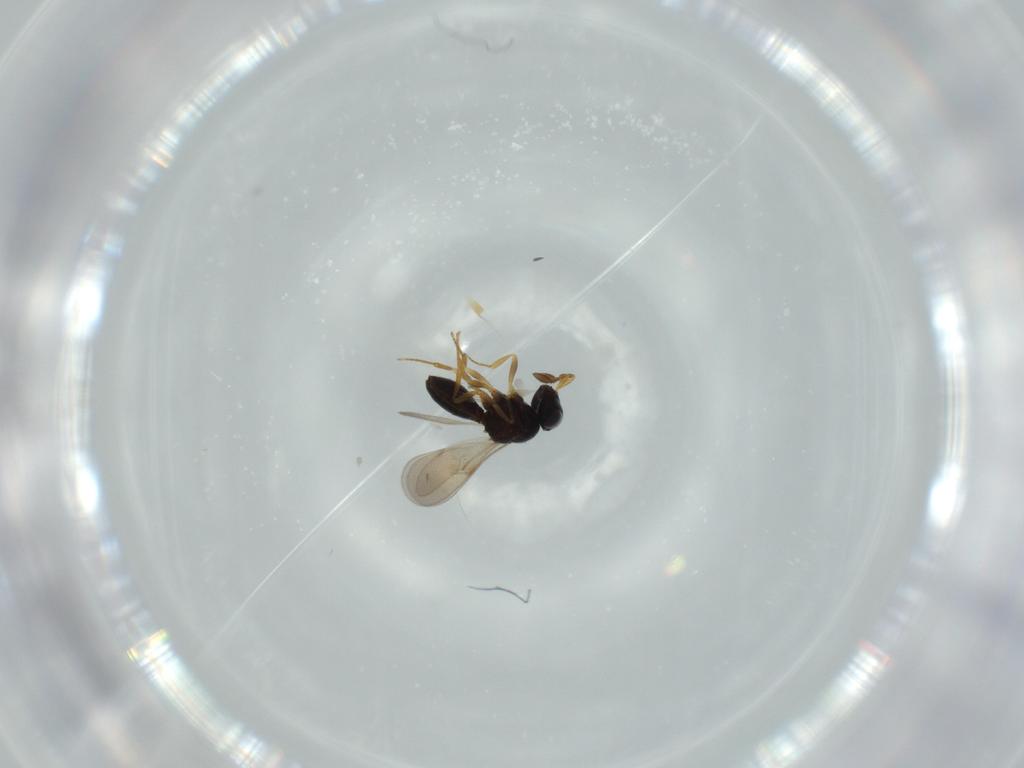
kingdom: Animalia
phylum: Arthropoda
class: Insecta
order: Hymenoptera
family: Scelionidae
